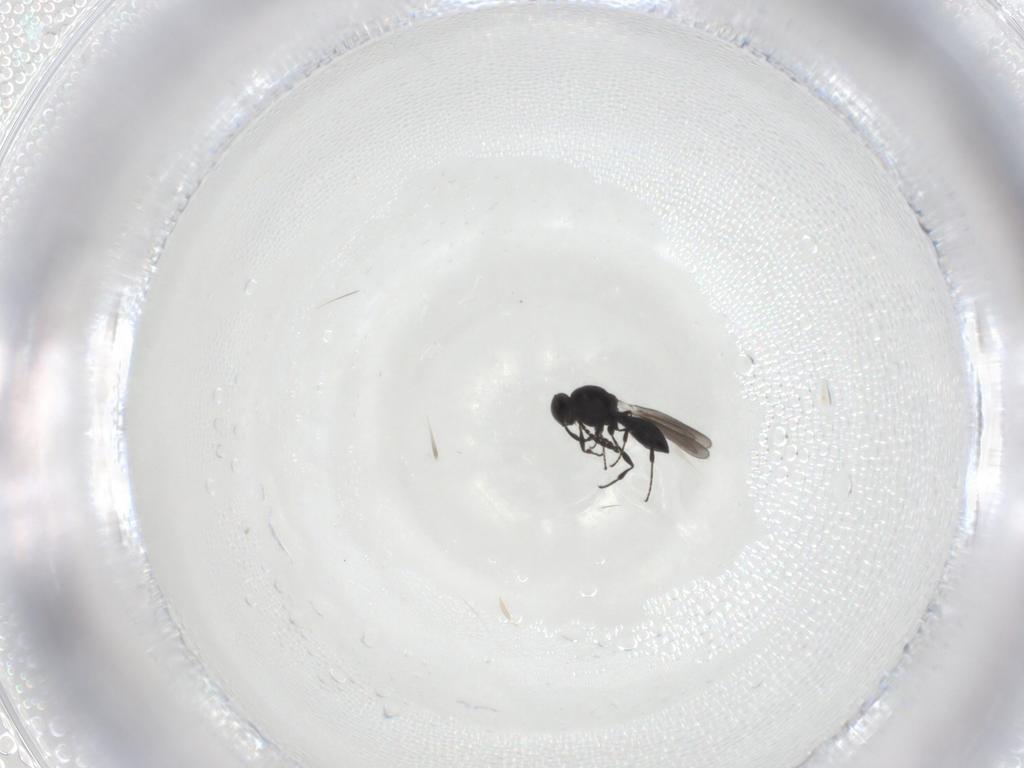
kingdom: Animalia
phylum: Arthropoda
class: Insecta
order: Hymenoptera
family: Platygastridae
